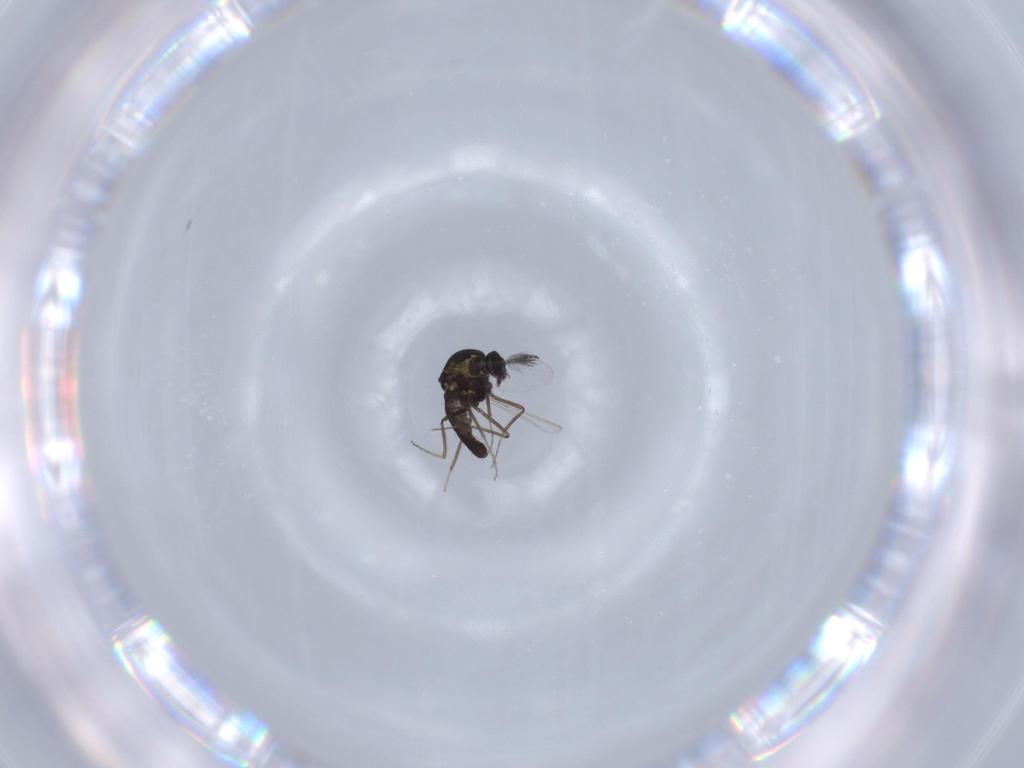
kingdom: Animalia
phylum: Arthropoda
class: Insecta
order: Diptera
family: Ceratopogonidae
